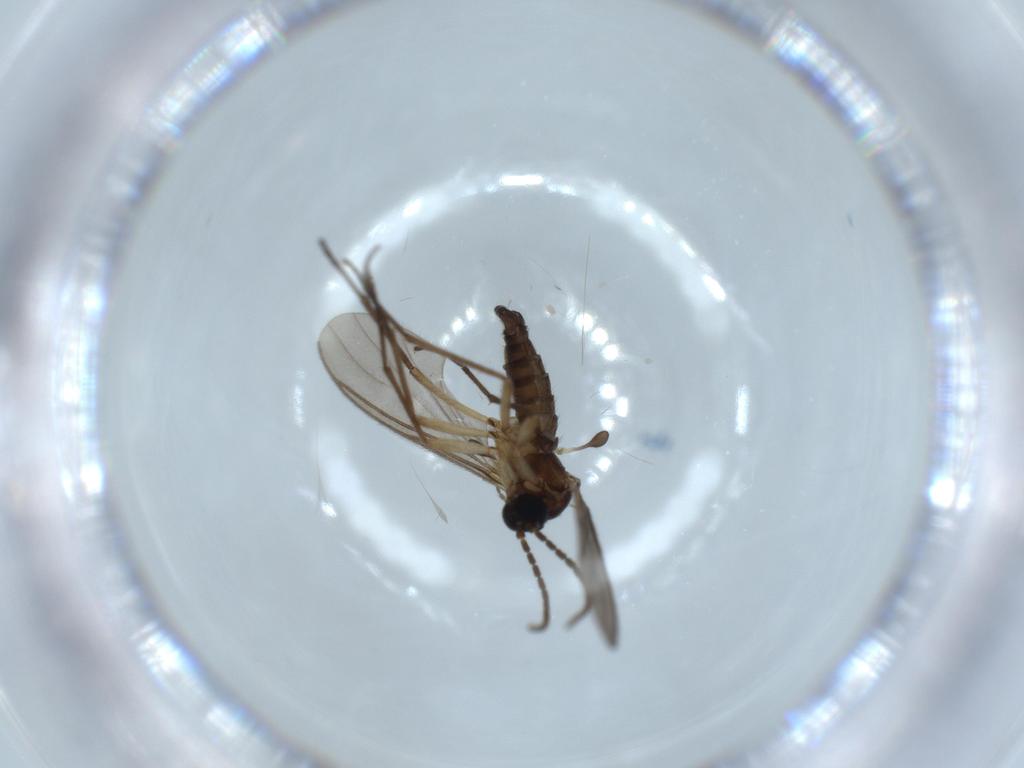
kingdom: Animalia
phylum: Arthropoda
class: Insecta
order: Diptera
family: Sciaridae
